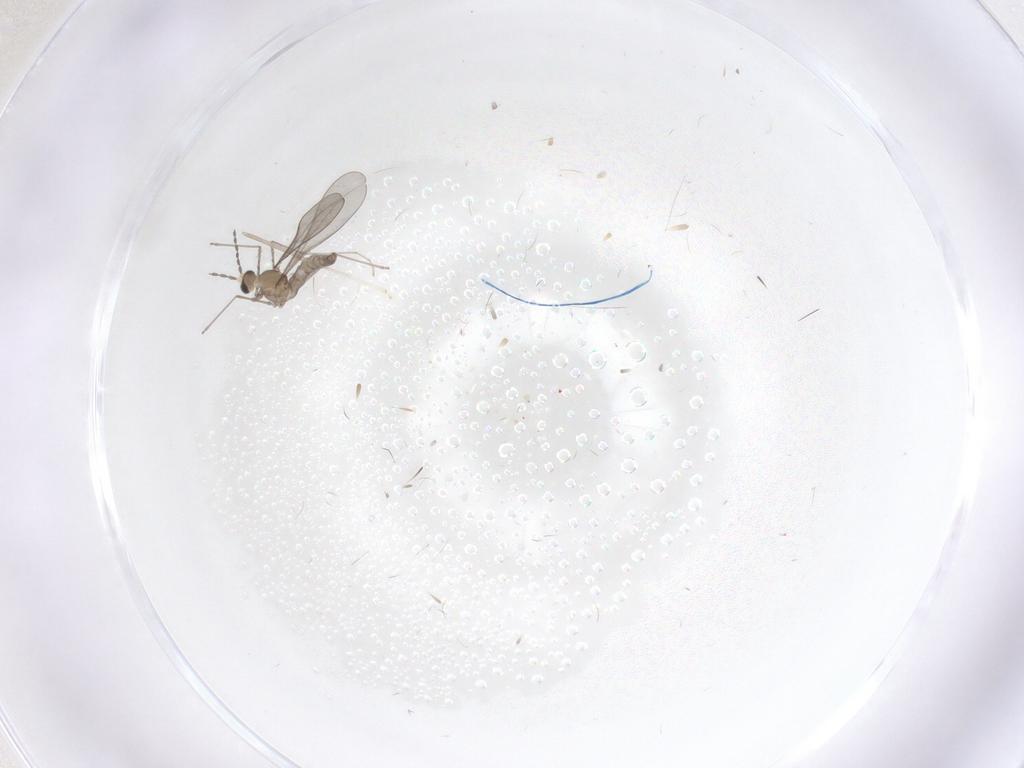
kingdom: Animalia
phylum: Arthropoda
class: Insecta
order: Diptera
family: Cecidomyiidae
